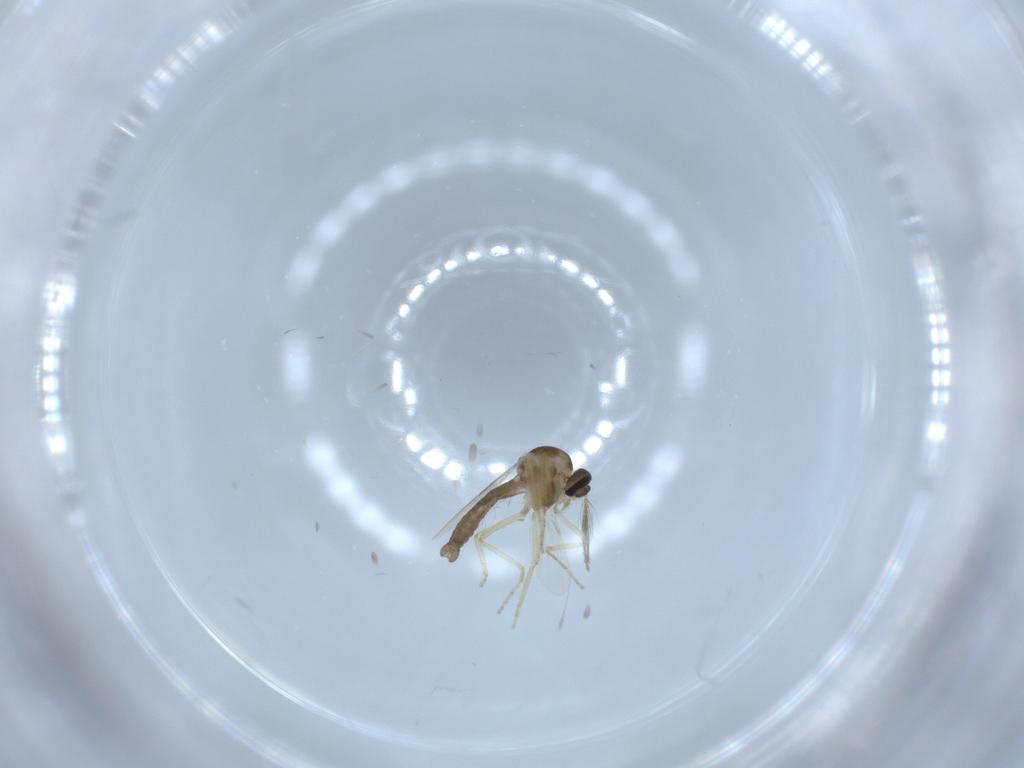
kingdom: Animalia
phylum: Arthropoda
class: Insecta
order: Diptera
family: Ceratopogonidae
